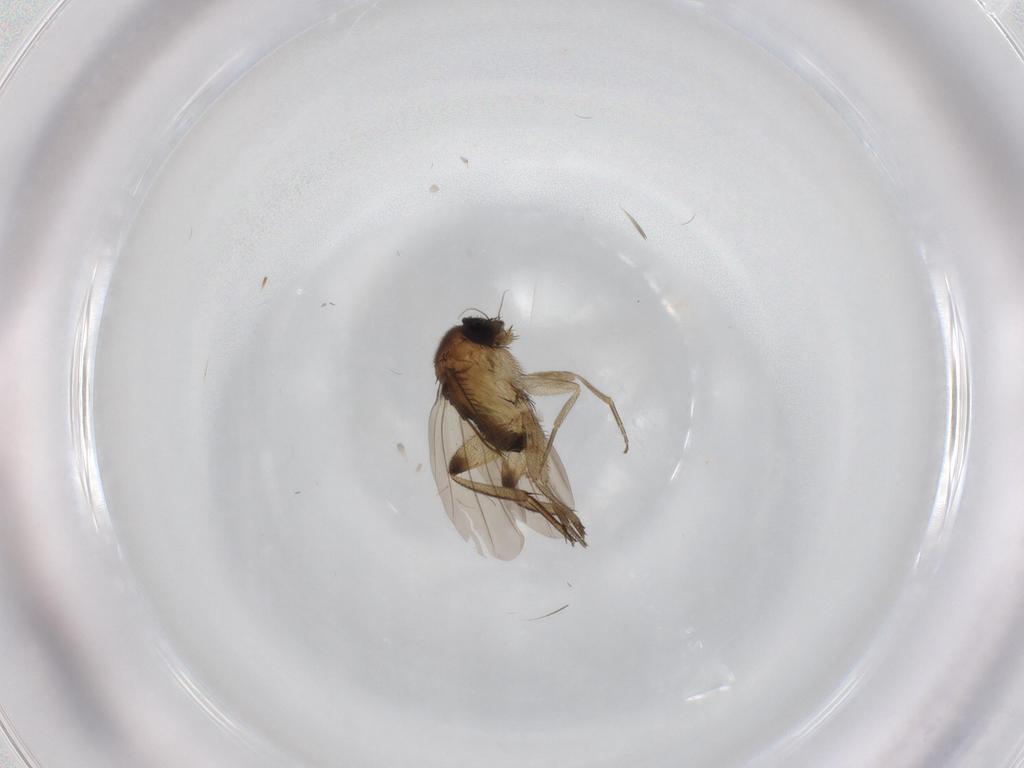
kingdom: Animalia
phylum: Arthropoda
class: Insecta
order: Diptera
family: Phoridae
